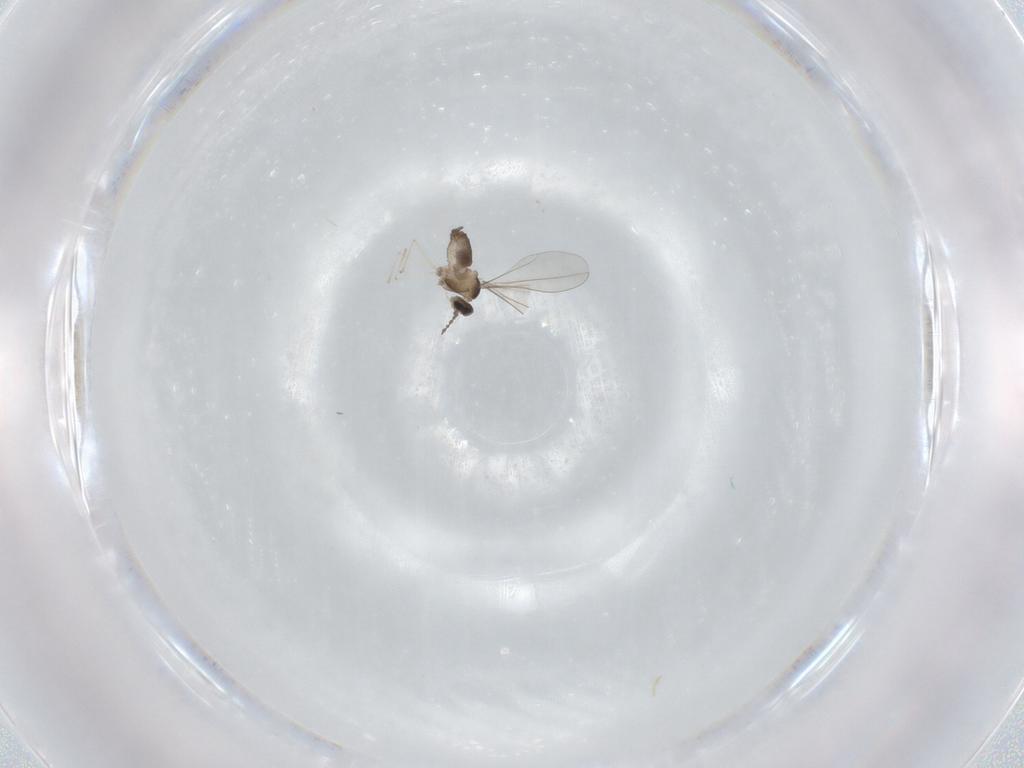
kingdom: Animalia
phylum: Arthropoda
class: Insecta
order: Diptera
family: Cecidomyiidae
